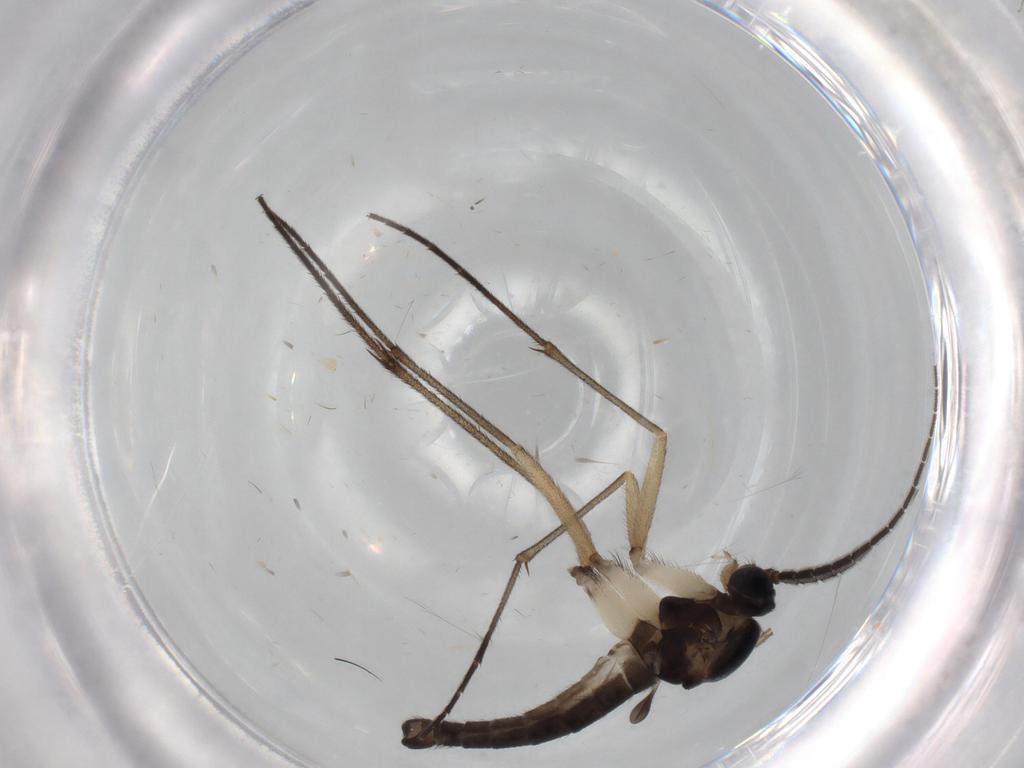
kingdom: Animalia
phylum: Arthropoda
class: Insecta
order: Diptera
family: Sciaridae
